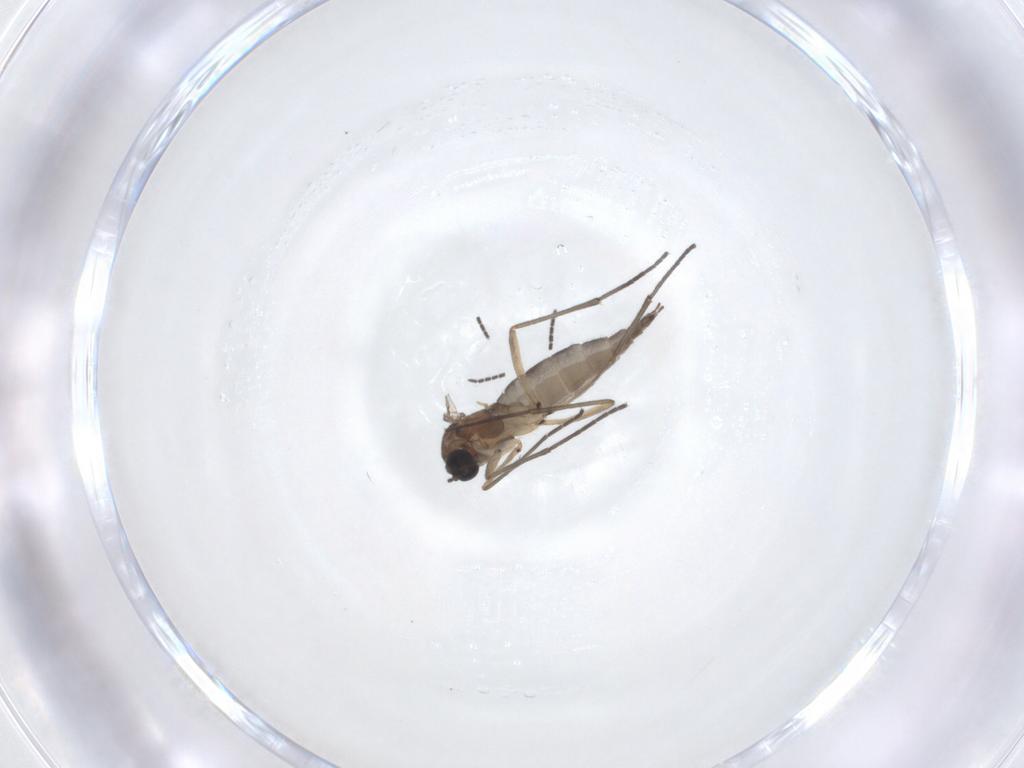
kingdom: Animalia
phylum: Arthropoda
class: Insecta
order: Diptera
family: Sciaridae
